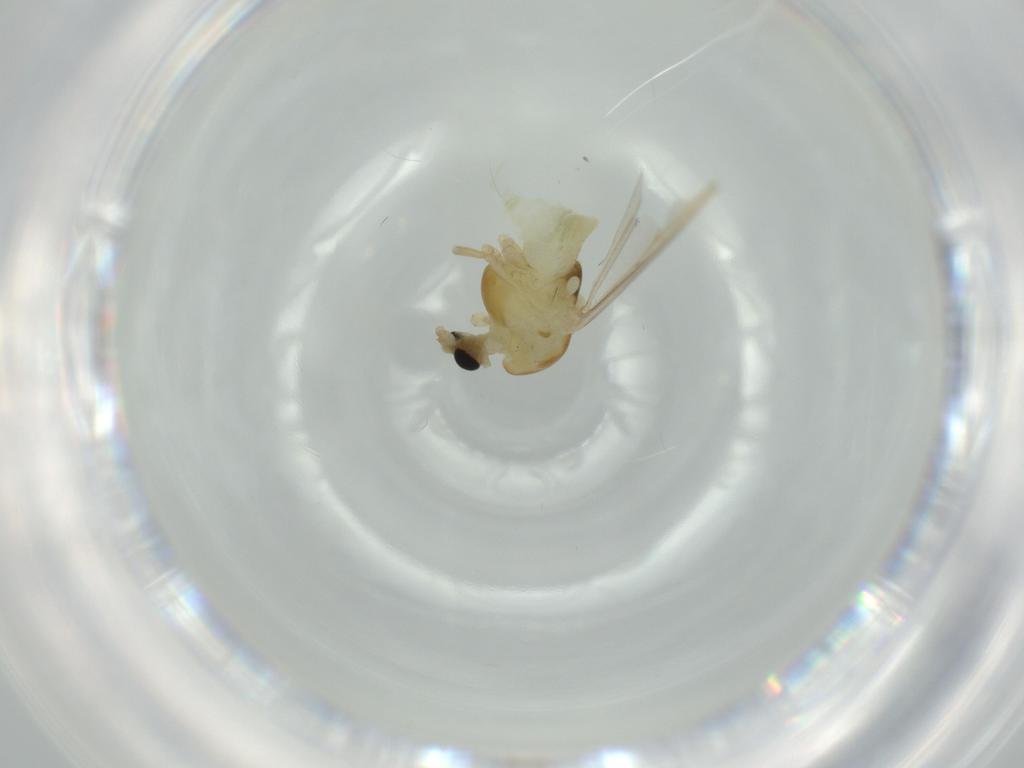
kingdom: Animalia
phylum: Arthropoda
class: Insecta
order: Diptera
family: Chironomidae
